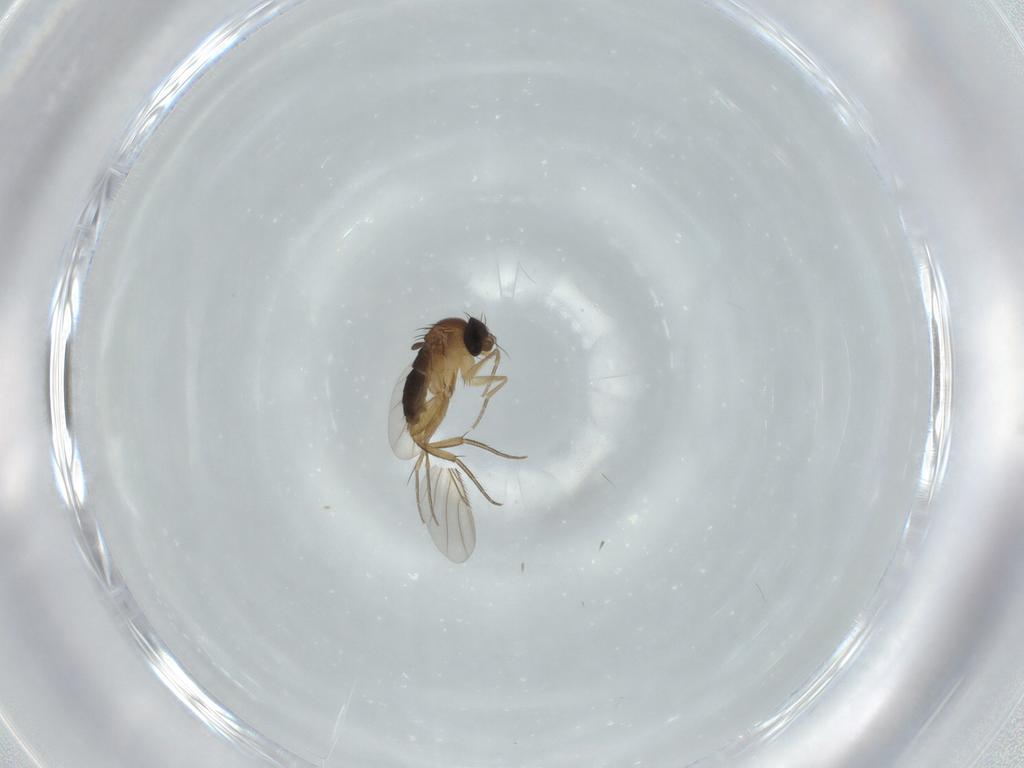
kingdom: Animalia
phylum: Arthropoda
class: Insecta
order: Diptera
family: Phoridae
